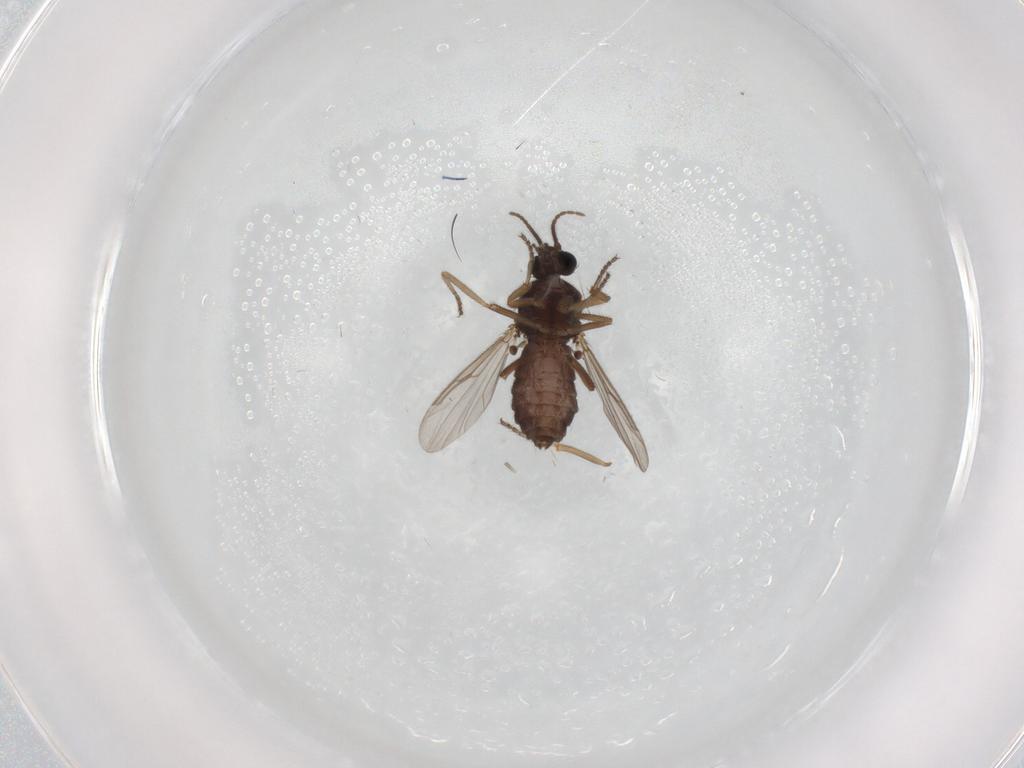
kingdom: Animalia
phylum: Arthropoda
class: Insecta
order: Diptera
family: Ceratopogonidae
